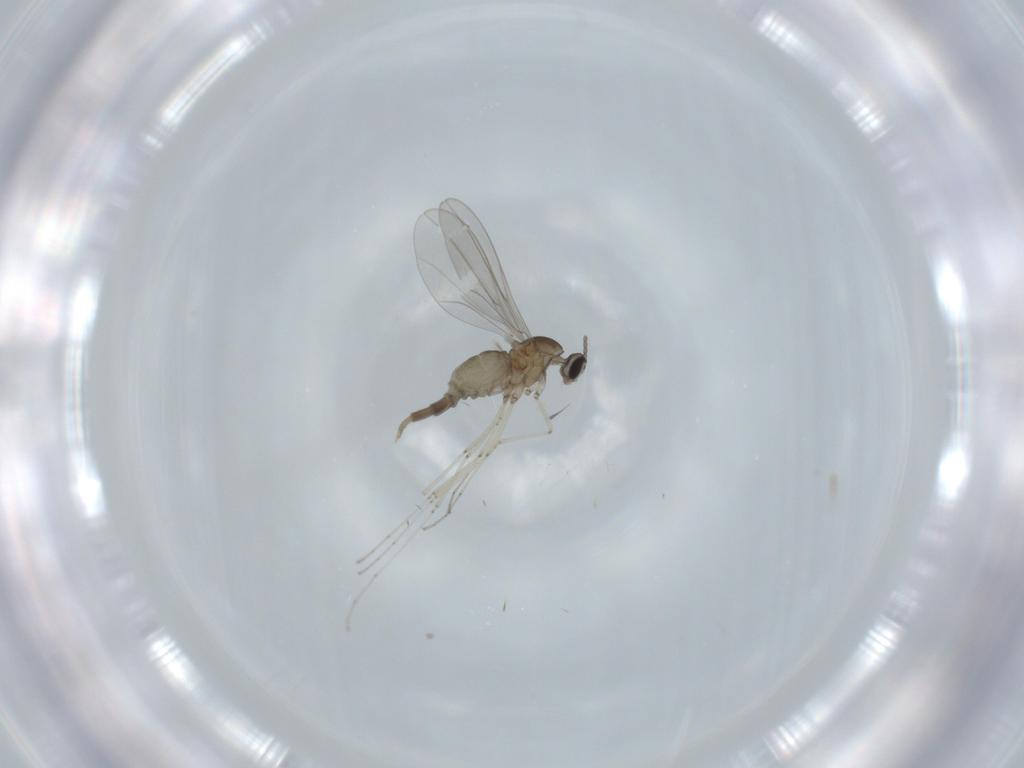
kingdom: Animalia
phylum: Arthropoda
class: Insecta
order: Diptera
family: Cecidomyiidae
